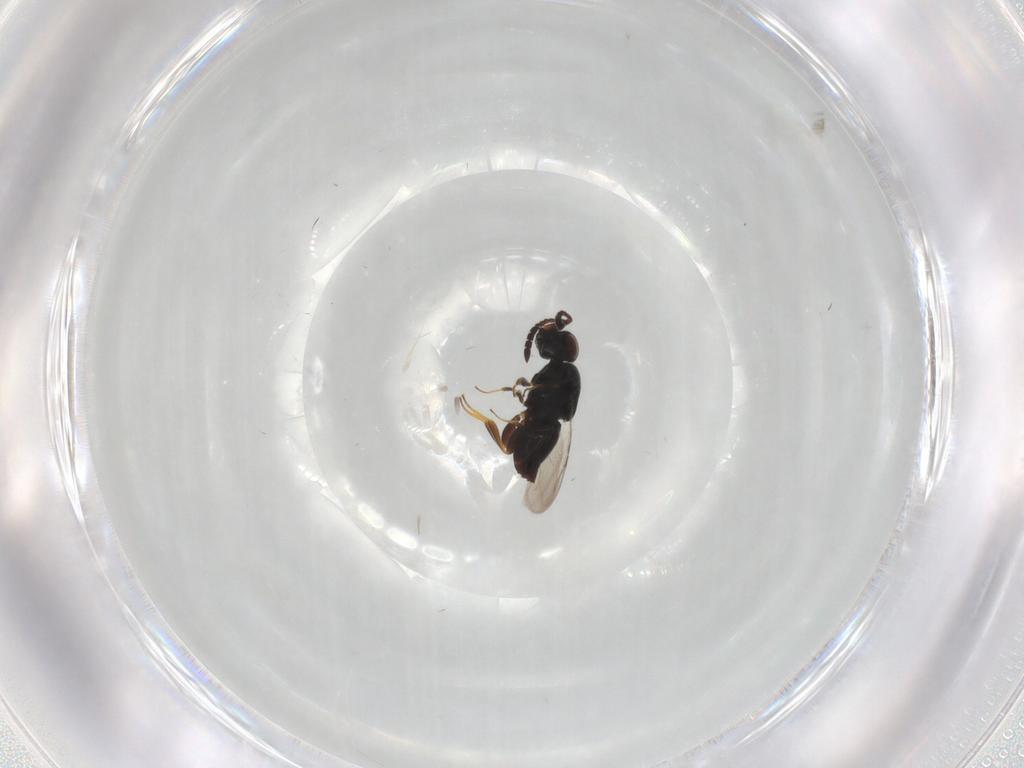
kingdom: Animalia
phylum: Arthropoda
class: Insecta
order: Hymenoptera
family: Ceraphronidae
